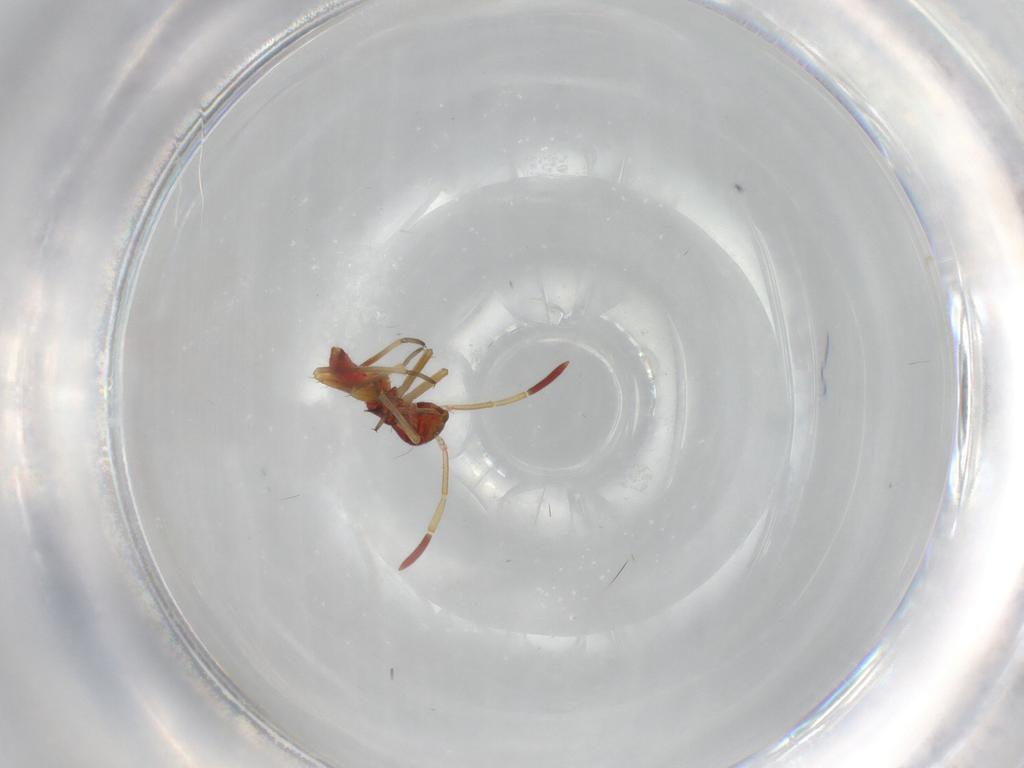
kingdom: Animalia
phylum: Arthropoda
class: Insecta
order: Hemiptera
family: Miridae
